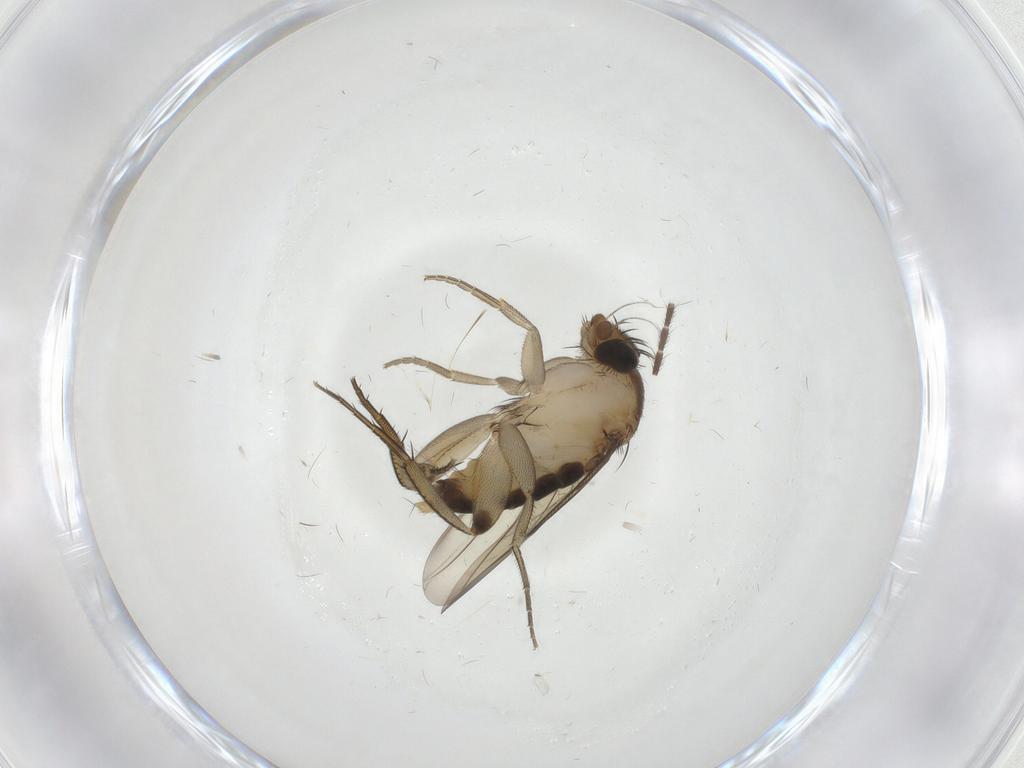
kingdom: Animalia
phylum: Arthropoda
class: Insecta
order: Diptera
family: Phoridae
